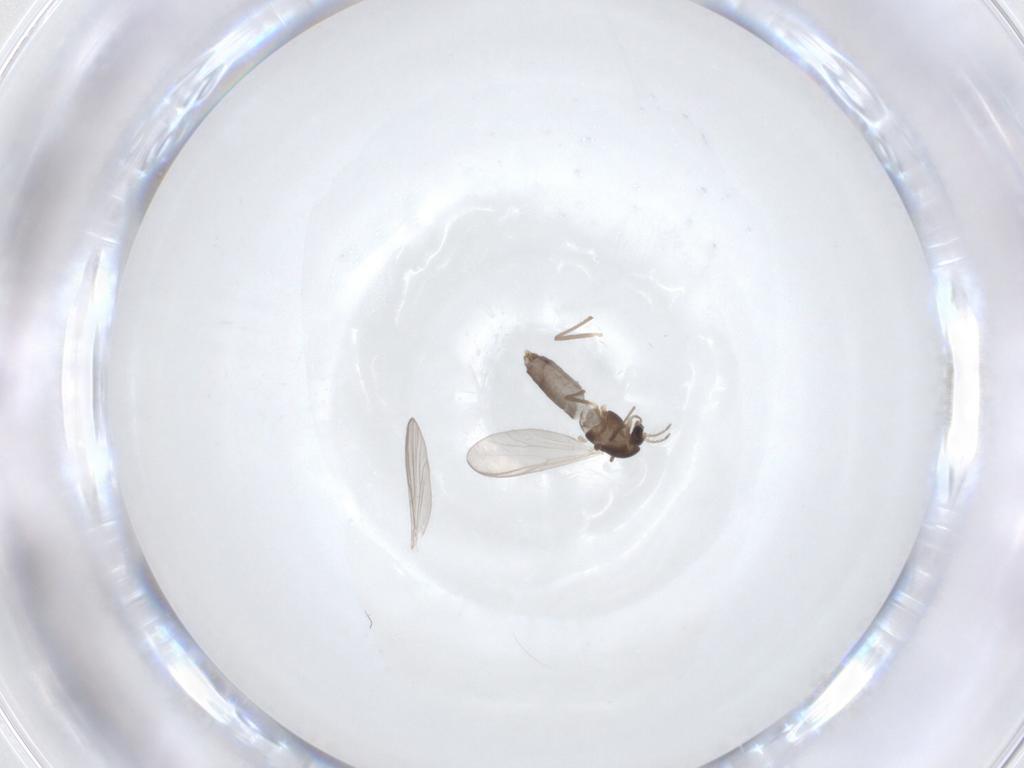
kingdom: Animalia
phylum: Arthropoda
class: Insecta
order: Diptera
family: Chironomidae
